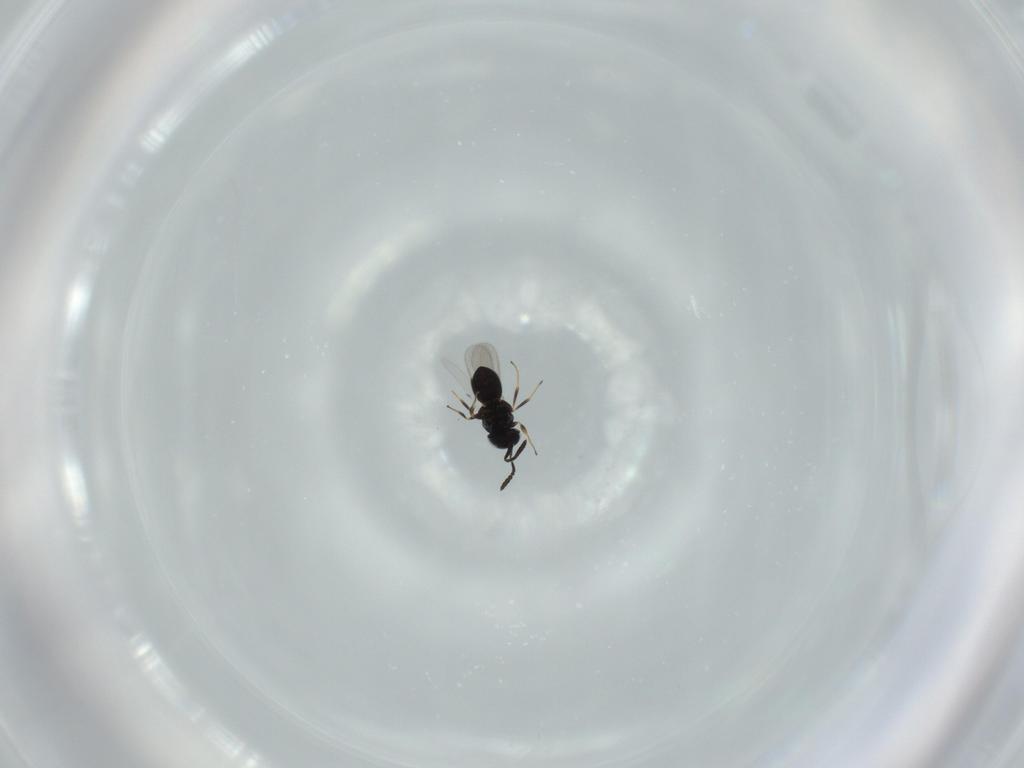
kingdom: Animalia
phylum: Arthropoda
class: Insecta
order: Hymenoptera
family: Scelionidae
